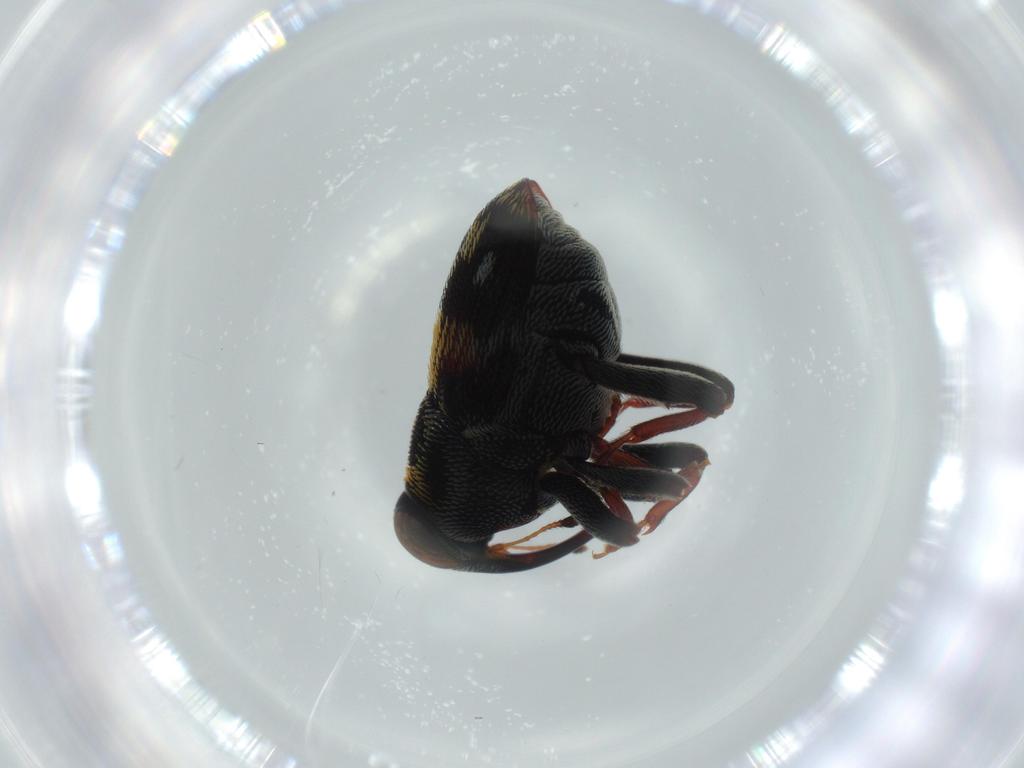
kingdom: Animalia
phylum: Arthropoda
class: Insecta
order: Coleoptera
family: Curculionidae
